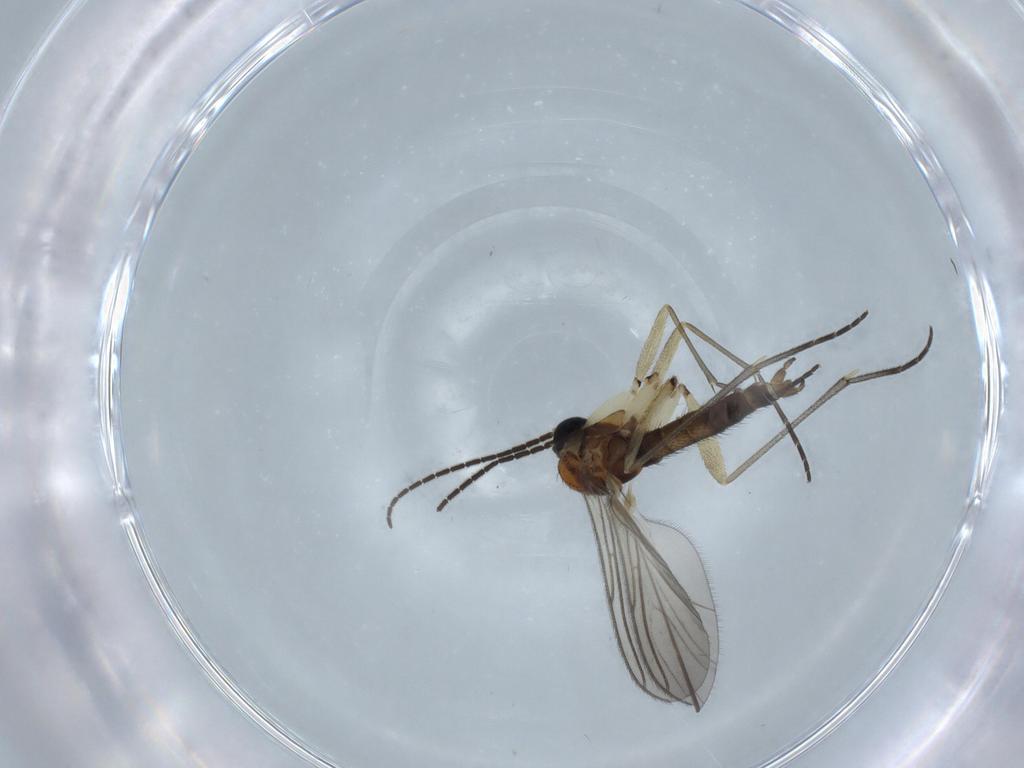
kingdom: Animalia
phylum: Arthropoda
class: Insecta
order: Diptera
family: Sciaridae
